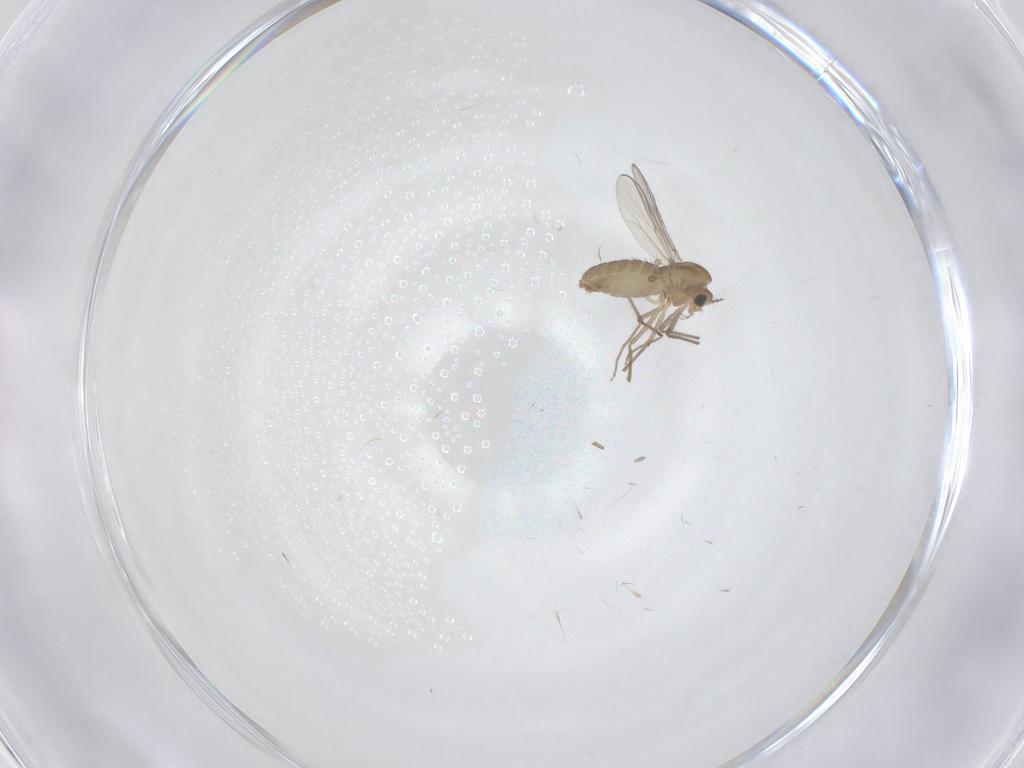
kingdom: Animalia
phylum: Arthropoda
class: Insecta
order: Diptera
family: Chironomidae
